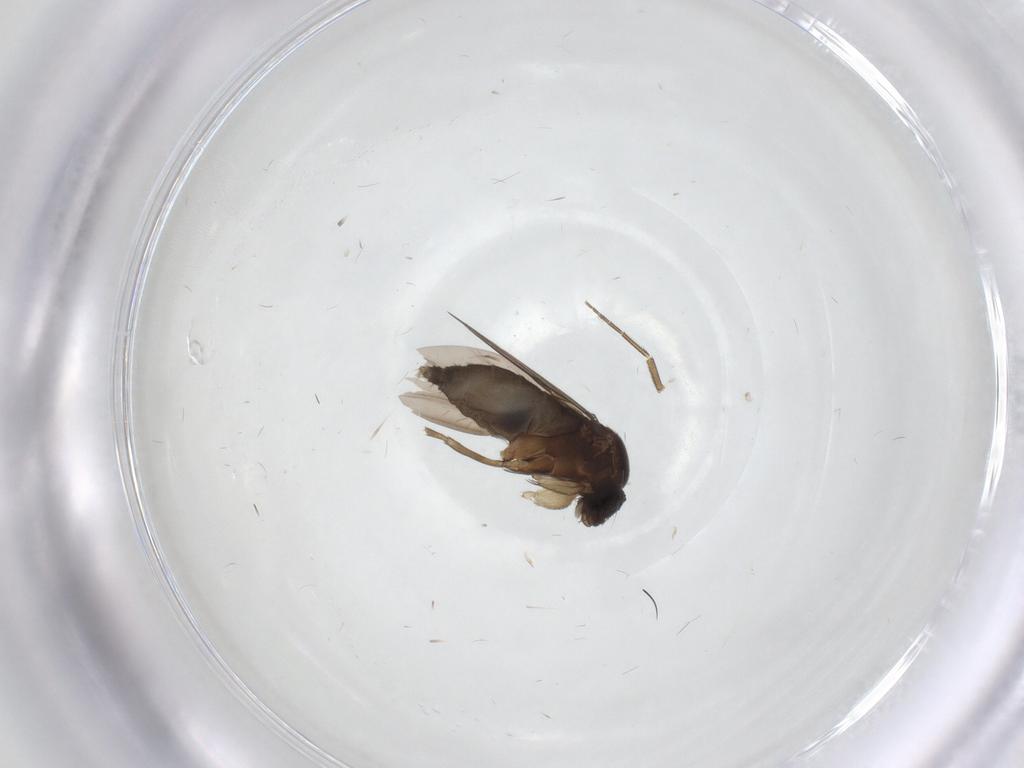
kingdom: Animalia
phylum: Arthropoda
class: Insecta
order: Diptera
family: Phoridae
